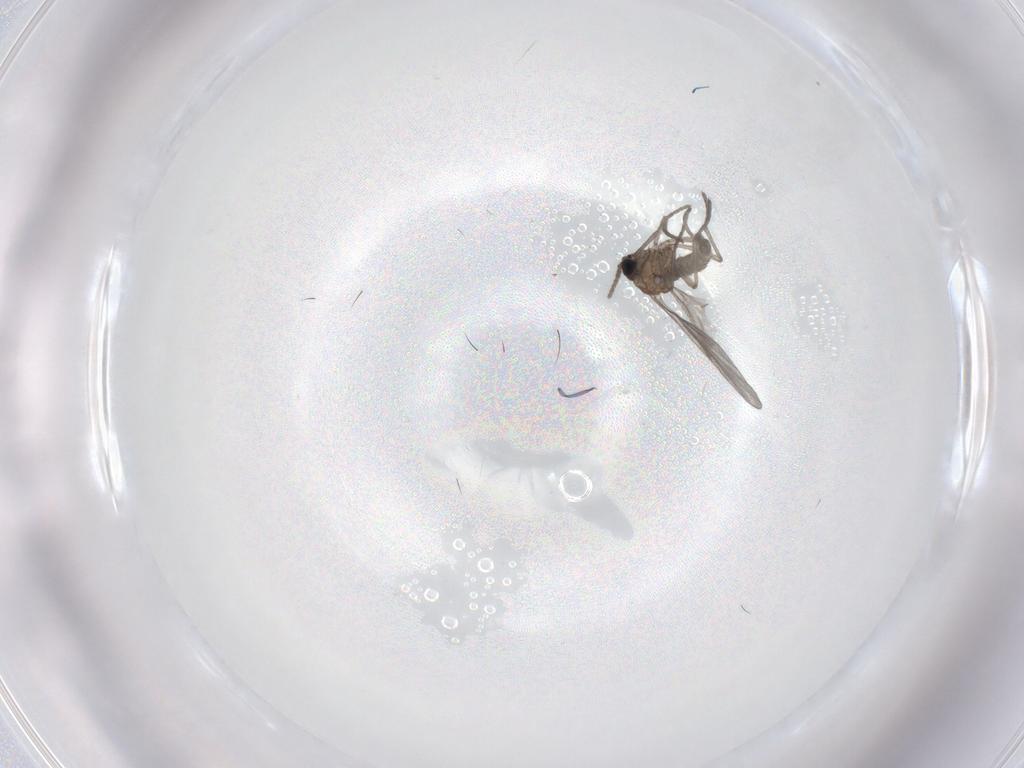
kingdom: Animalia
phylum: Arthropoda
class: Insecta
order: Diptera
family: Sciaridae
